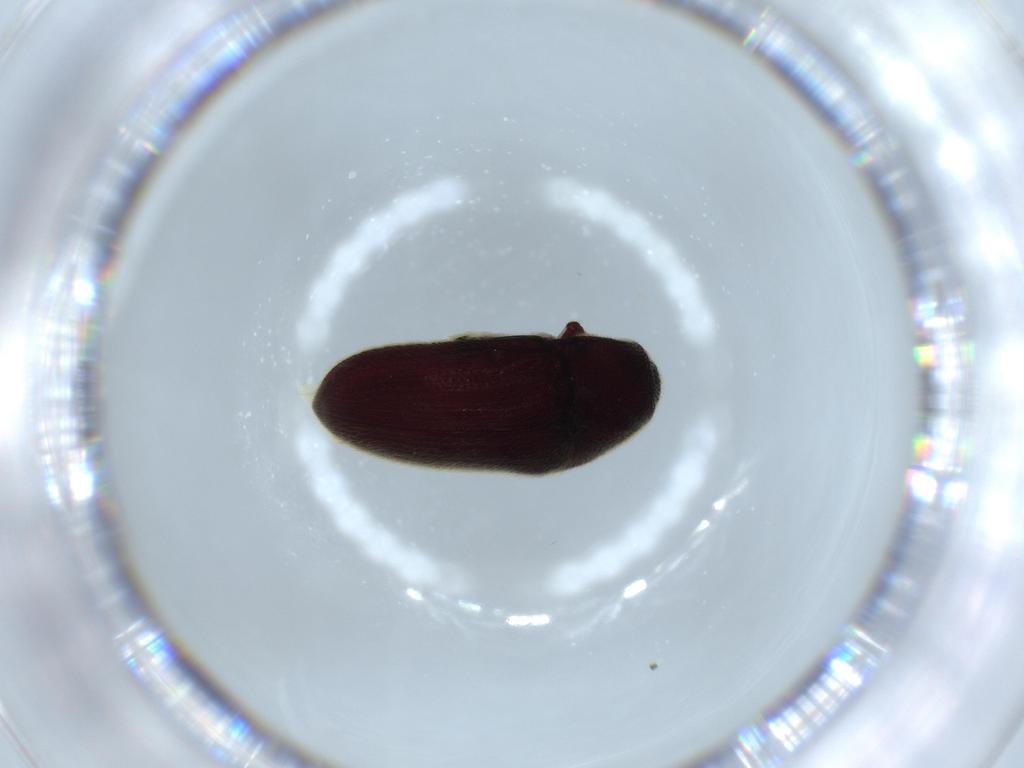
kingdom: Animalia
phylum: Arthropoda
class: Insecta
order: Coleoptera
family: Throscidae
